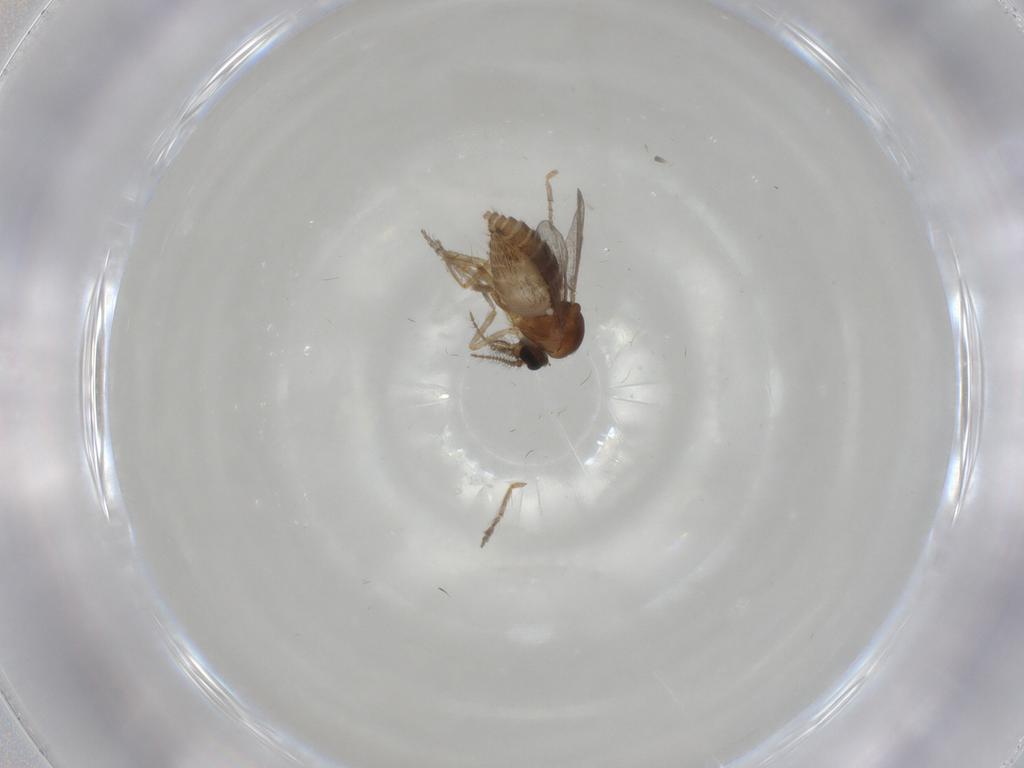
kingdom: Animalia
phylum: Arthropoda
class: Insecta
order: Diptera
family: Ceratopogonidae
